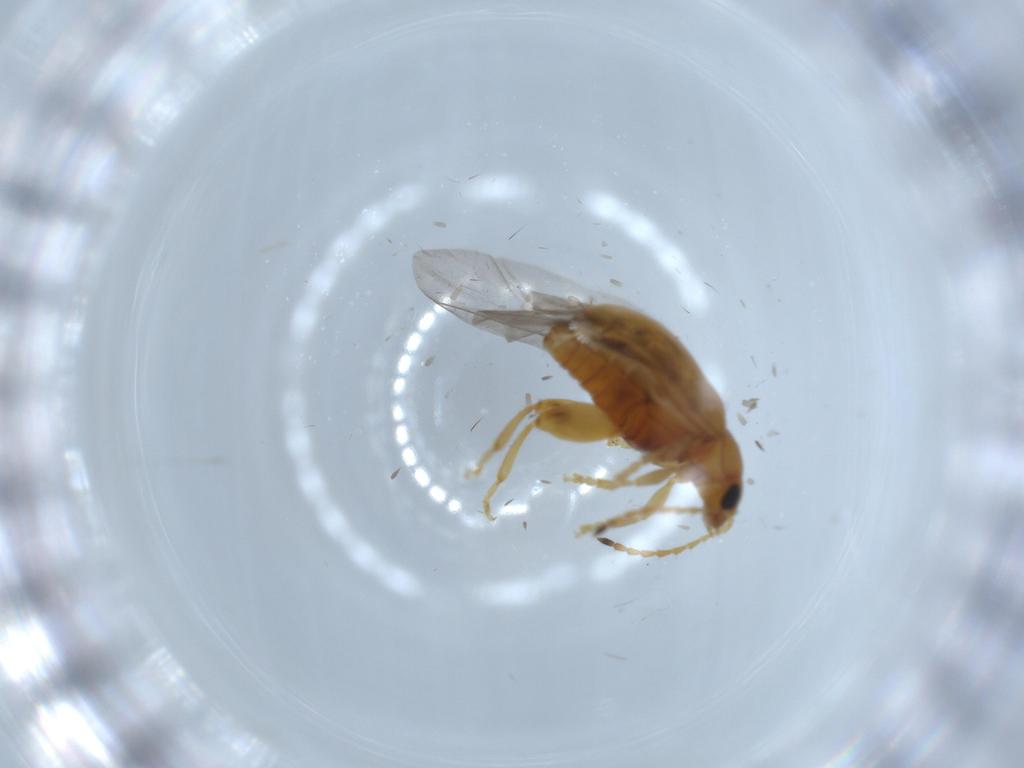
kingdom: Animalia
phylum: Arthropoda
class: Insecta
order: Coleoptera
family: Chrysomelidae
